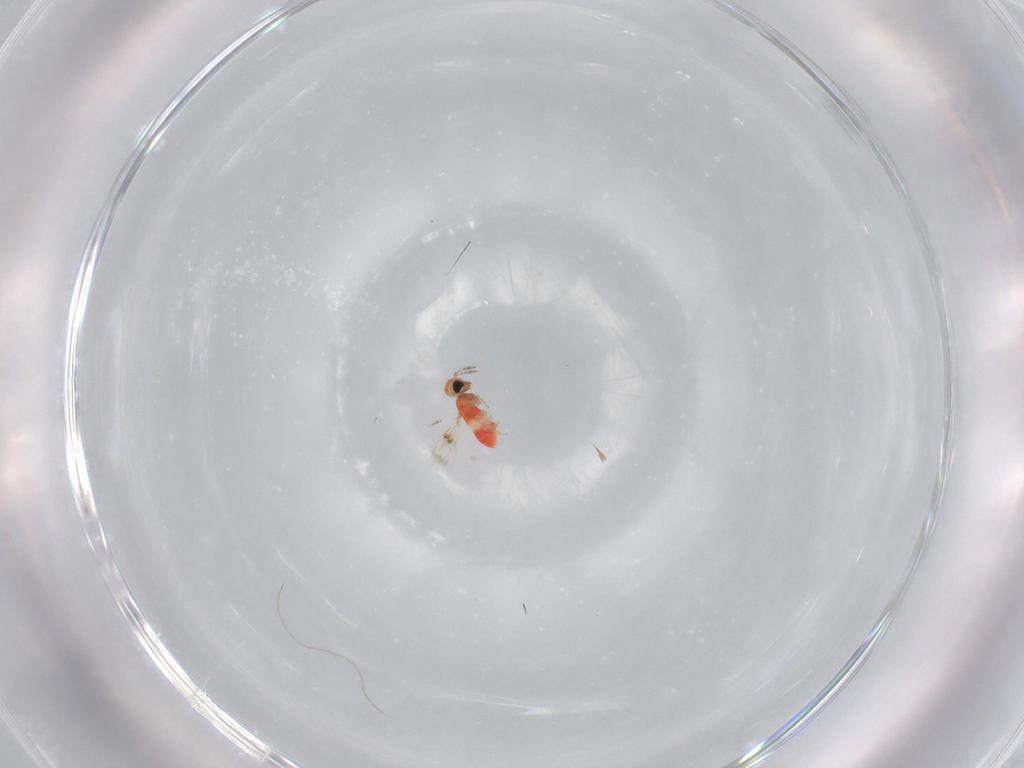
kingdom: Animalia
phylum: Arthropoda
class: Insecta
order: Hymenoptera
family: Trichogrammatidae
